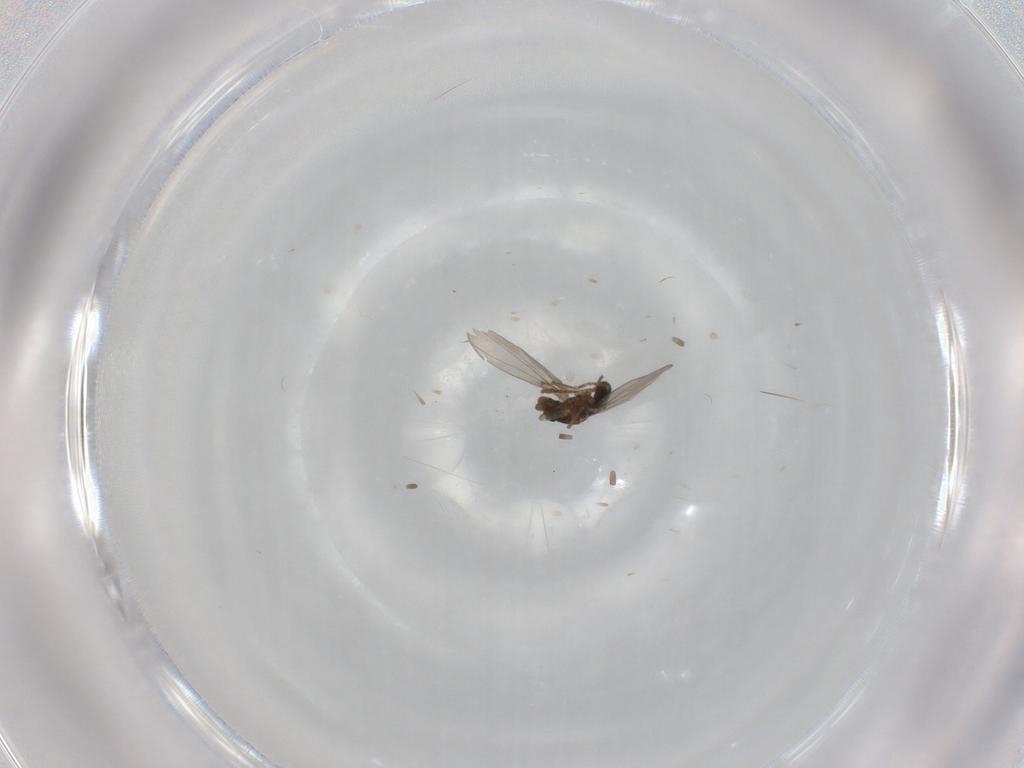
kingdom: Animalia
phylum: Arthropoda
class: Insecta
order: Diptera
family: Phoridae
